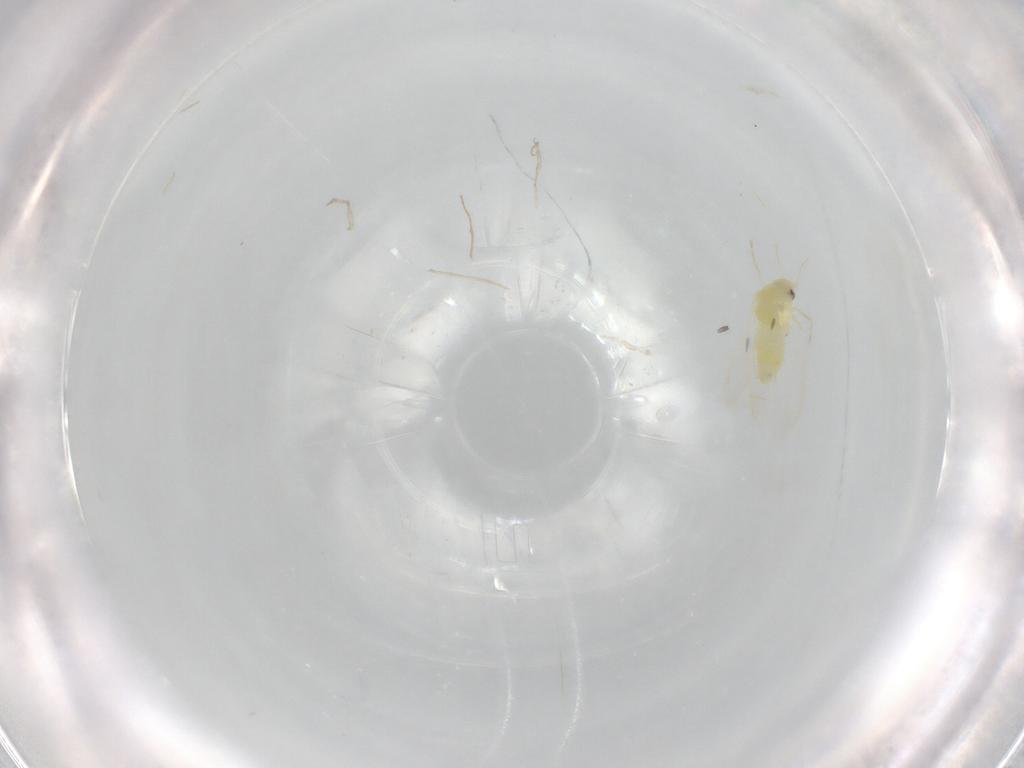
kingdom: Animalia
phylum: Arthropoda
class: Insecta
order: Hemiptera
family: Aleyrodidae
